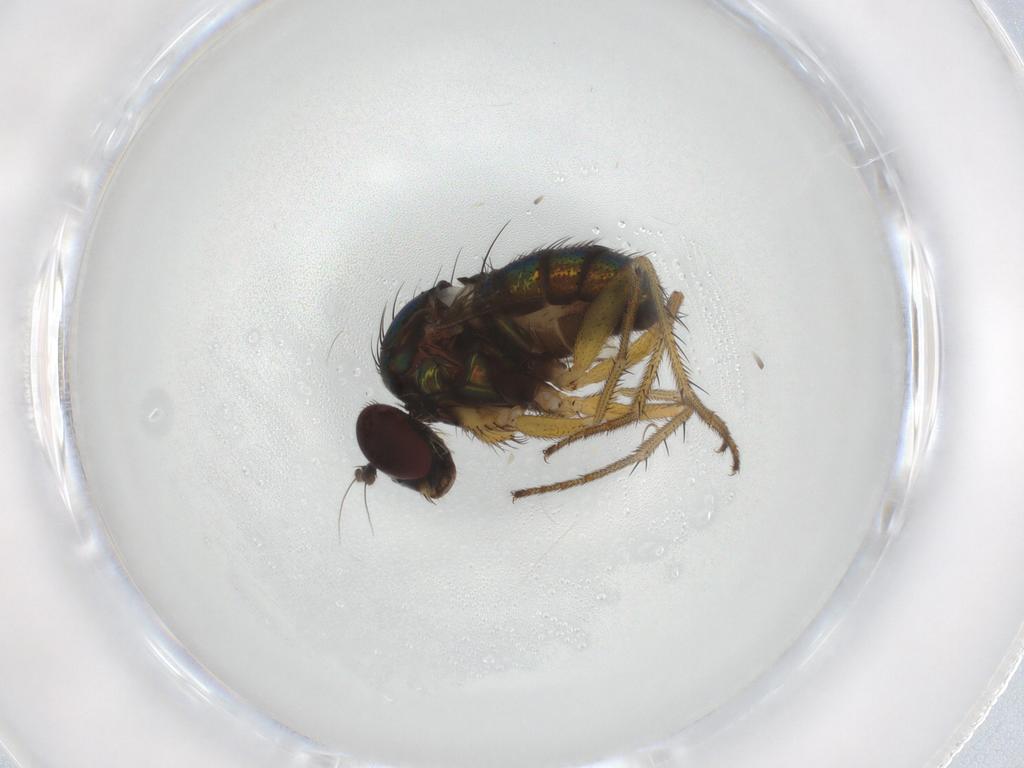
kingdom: Animalia
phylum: Arthropoda
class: Insecta
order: Diptera
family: Dolichopodidae
